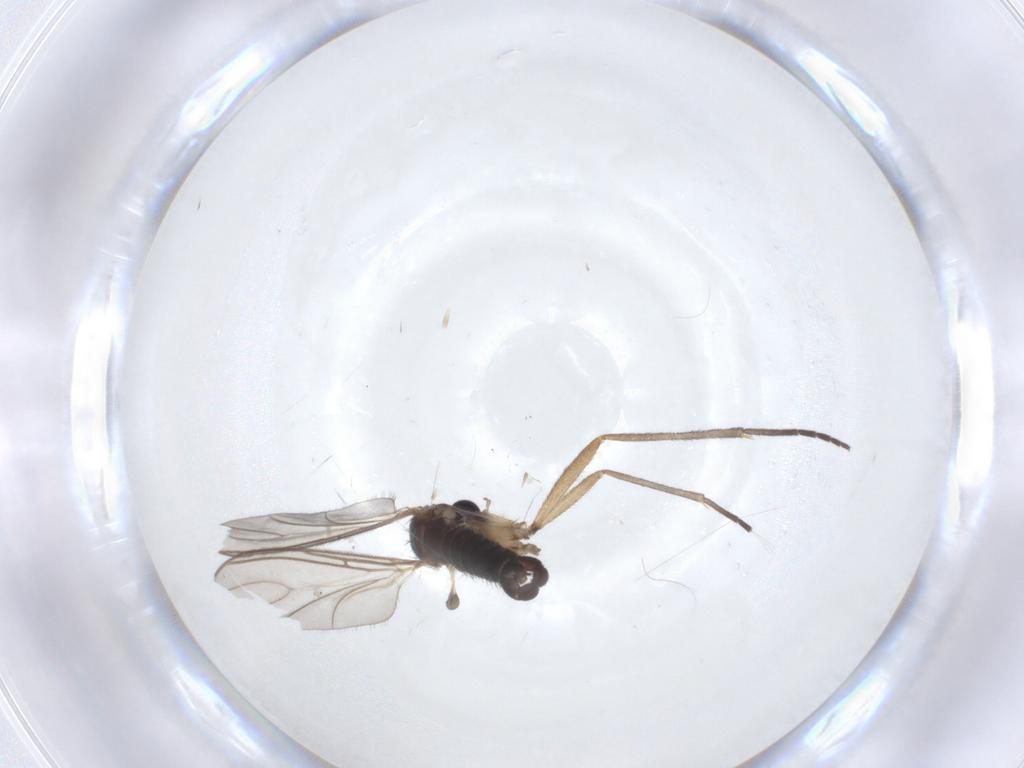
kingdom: Animalia
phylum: Arthropoda
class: Insecta
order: Diptera
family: Sciaridae
